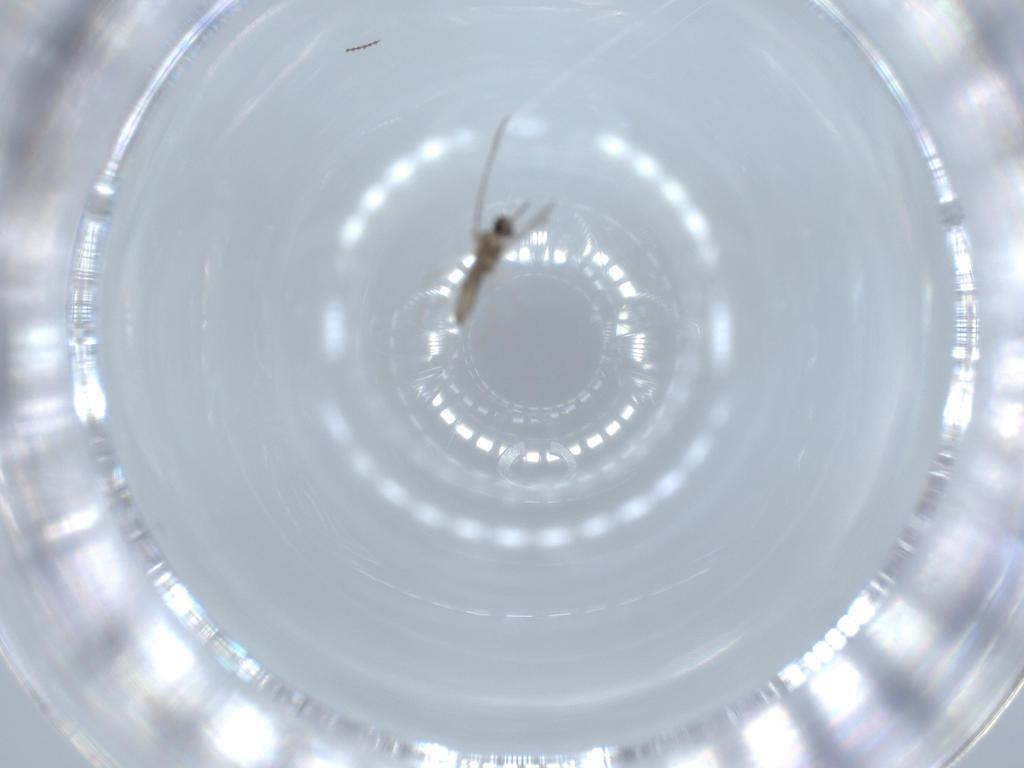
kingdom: Animalia
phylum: Arthropoda
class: Insecta
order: Diptera
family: Cecidomyiidae
